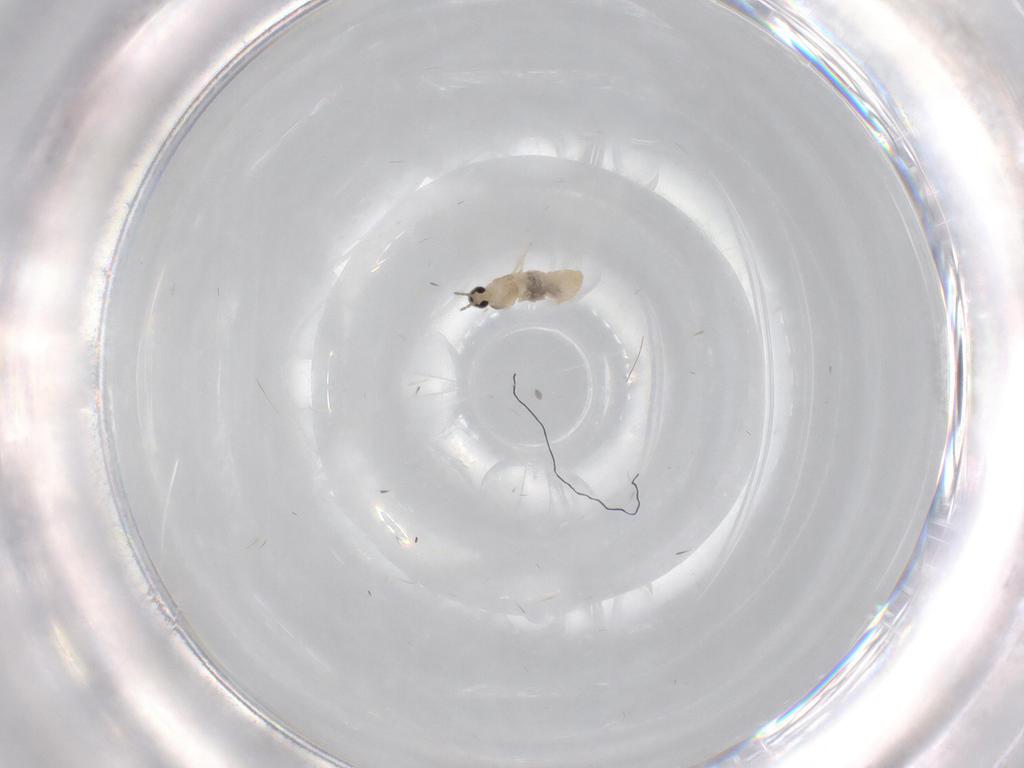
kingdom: Animalia
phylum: Arthropoda
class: Insecta
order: Diptera
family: Cecidomyiidae
